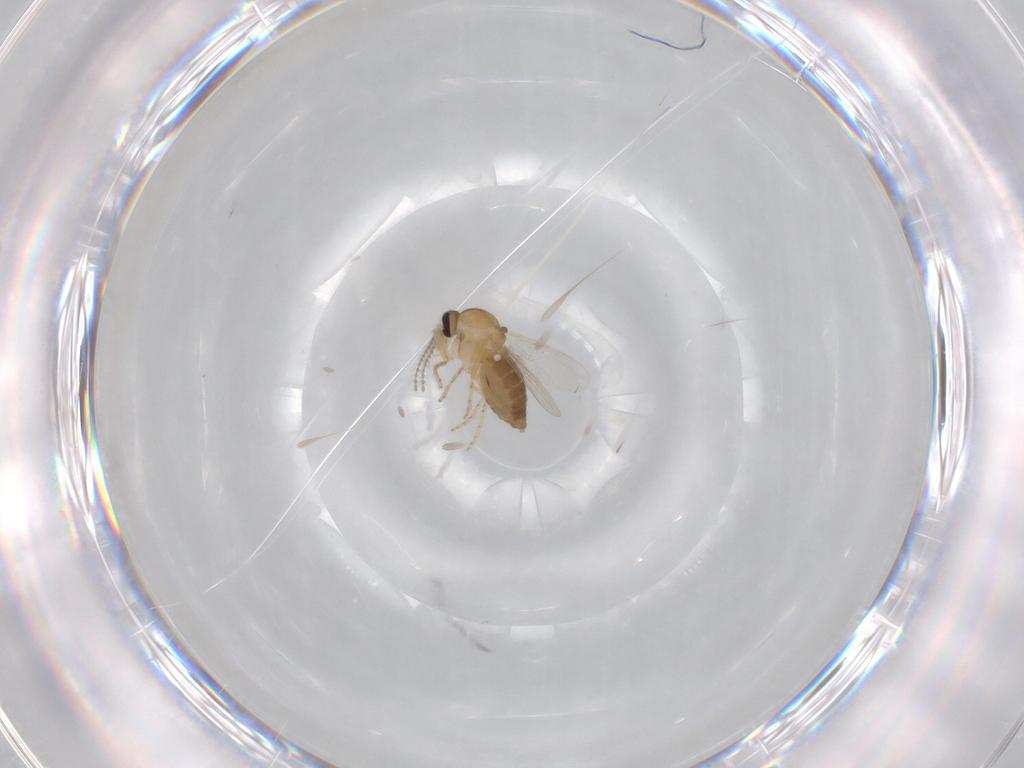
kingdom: Animalia
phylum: Arthropoda
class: Insecta
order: Diptera
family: Ceratopogonidae
